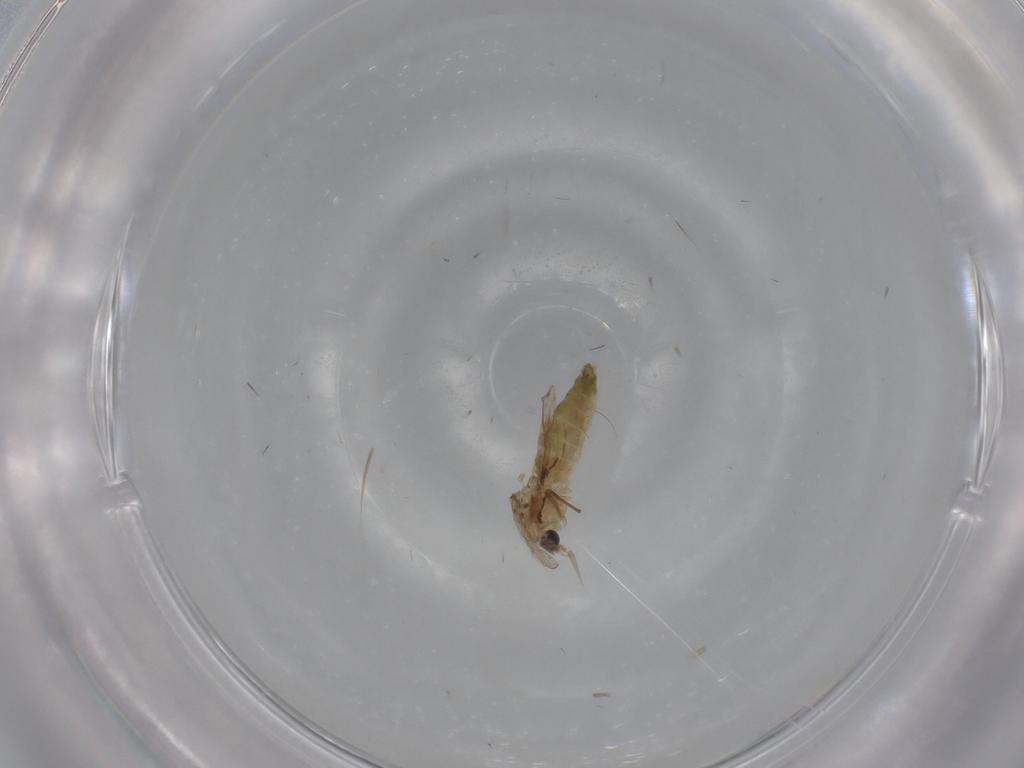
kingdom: Animalia
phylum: Arthropoda
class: Insecta
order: Diptera
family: Chironomidae
